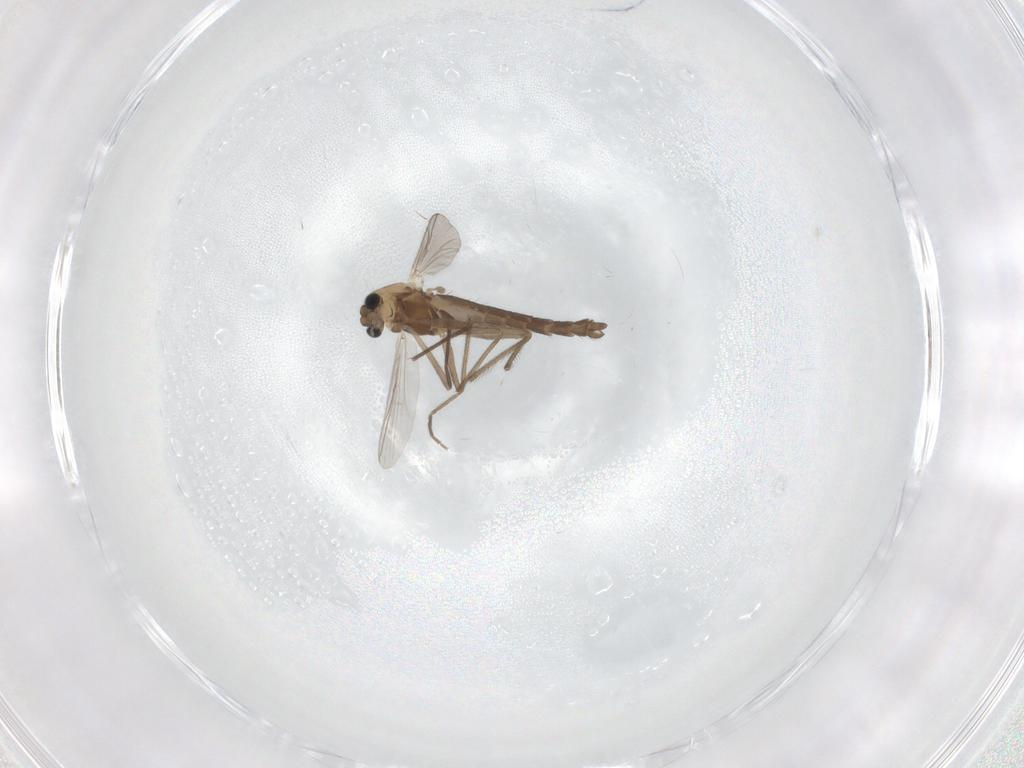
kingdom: Animalia
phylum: Arthropoda
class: Insecta
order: Diptera
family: Chironomidae
